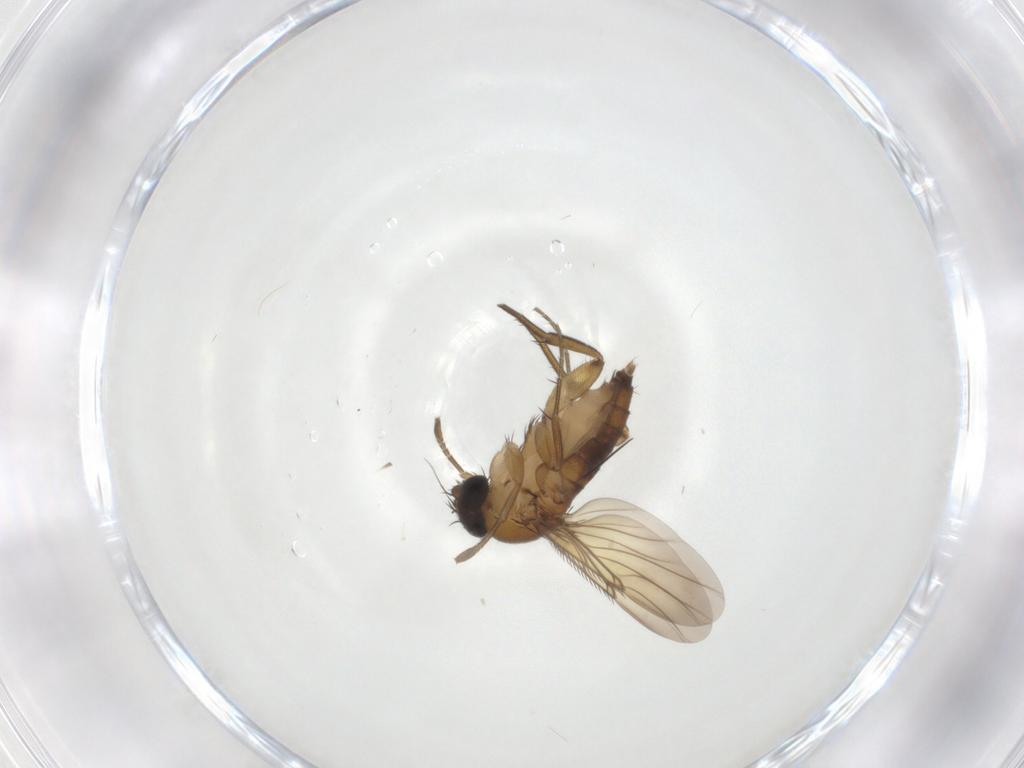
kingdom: Animalia
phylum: Arthropoda
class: Insecta
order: Diptera
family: Phoridae
